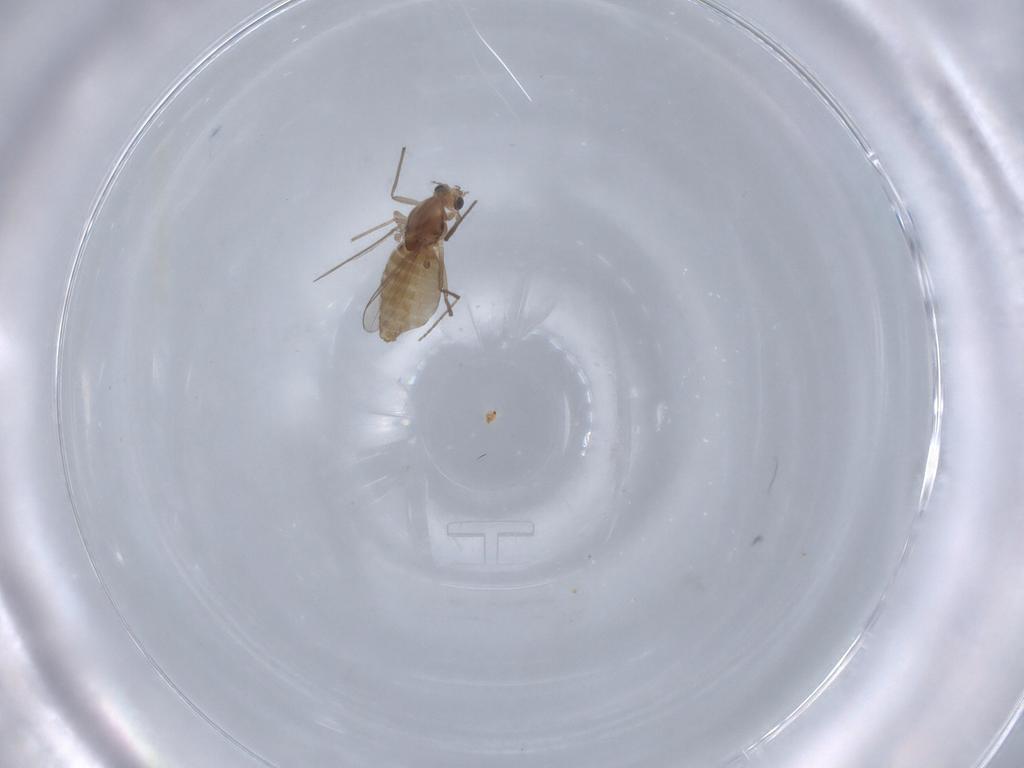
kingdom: Animalia
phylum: Arthropoda
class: Insecta
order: Diptera
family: Chironomidae
